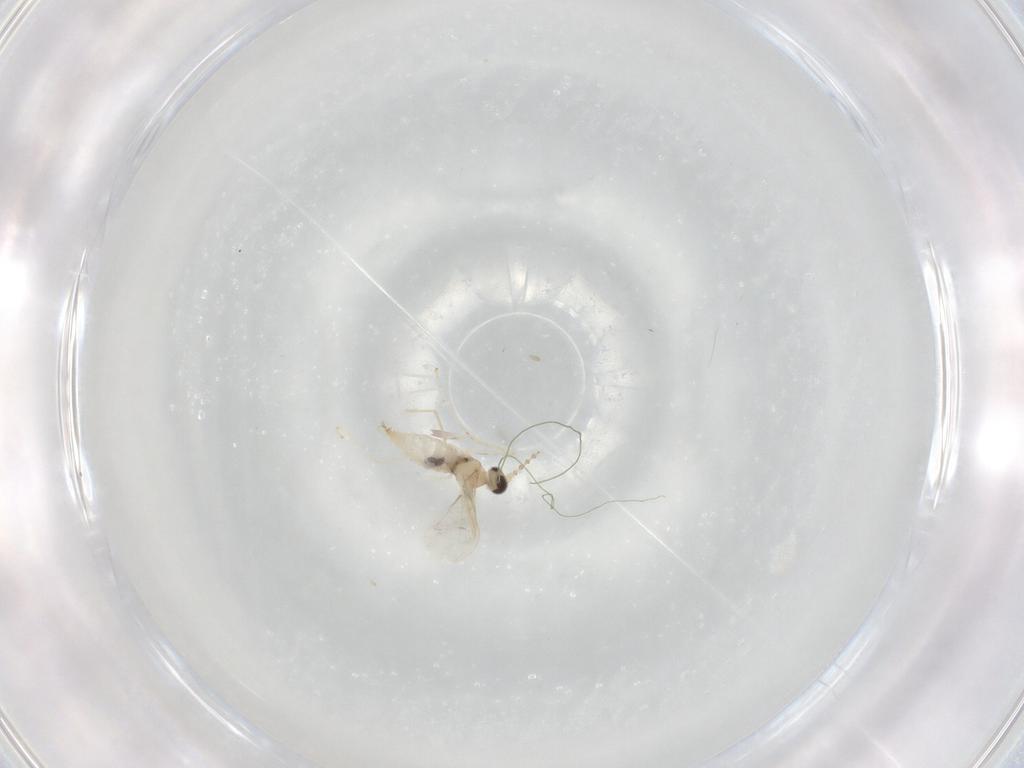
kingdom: Animalia
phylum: Arthropoda
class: Insecta
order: Diptera
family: Cecidomyiidae
